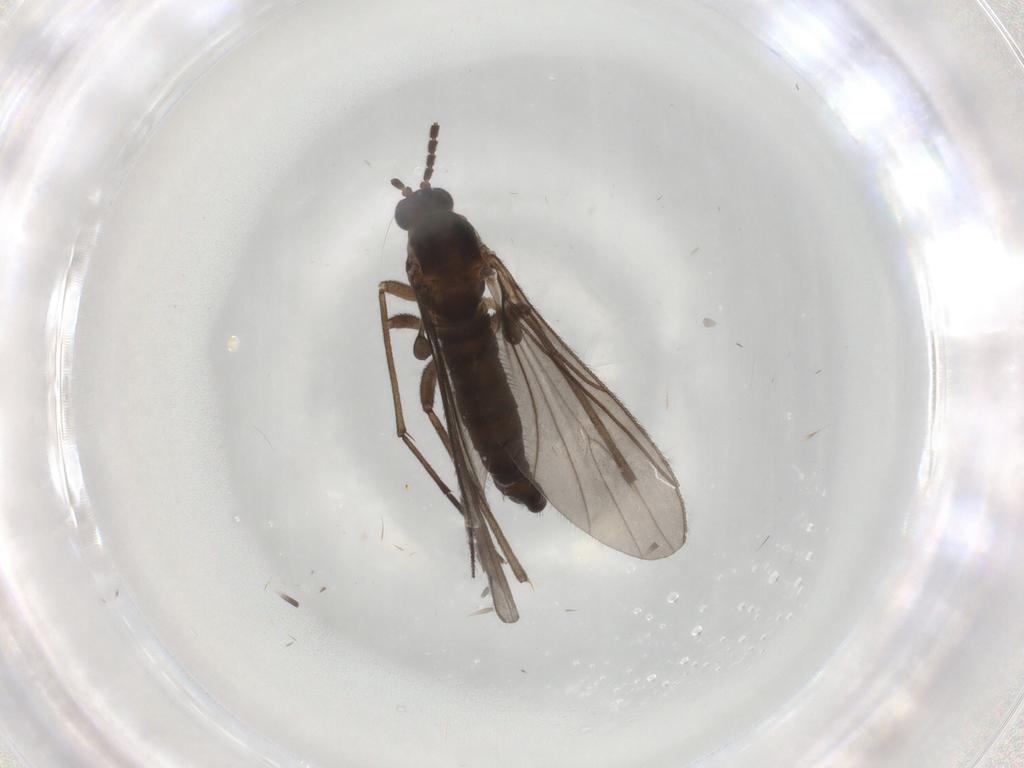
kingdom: Animalia
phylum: Arthropoda
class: Insecta
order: Diptera
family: Sciaridae
